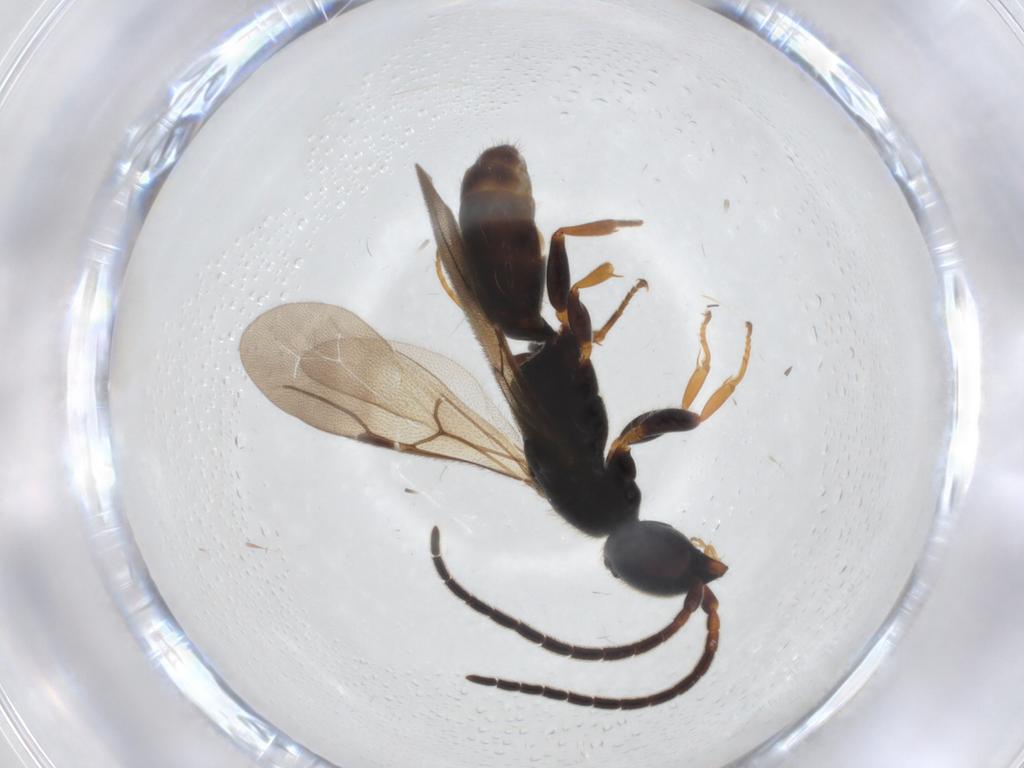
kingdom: Animalia
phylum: Arthropoda
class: Insecta
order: Hymenoptera
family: Bethylidae
